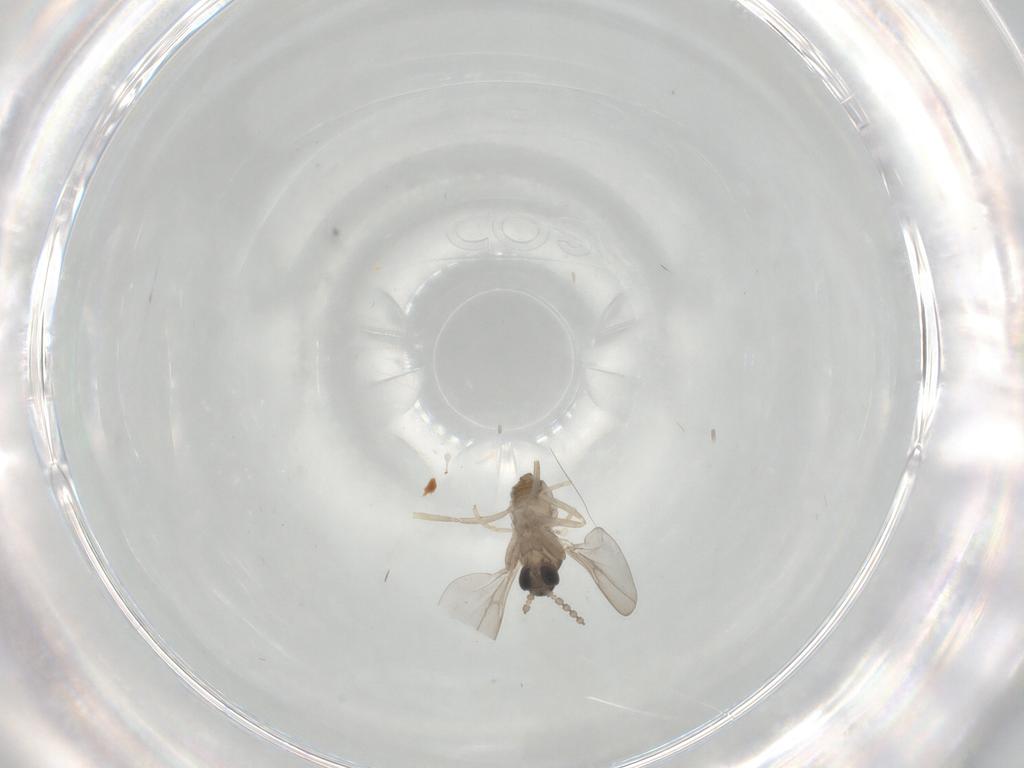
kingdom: Animalia
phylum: Arthropoda
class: Insecta
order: Diptera
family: Cecidomyiidae
